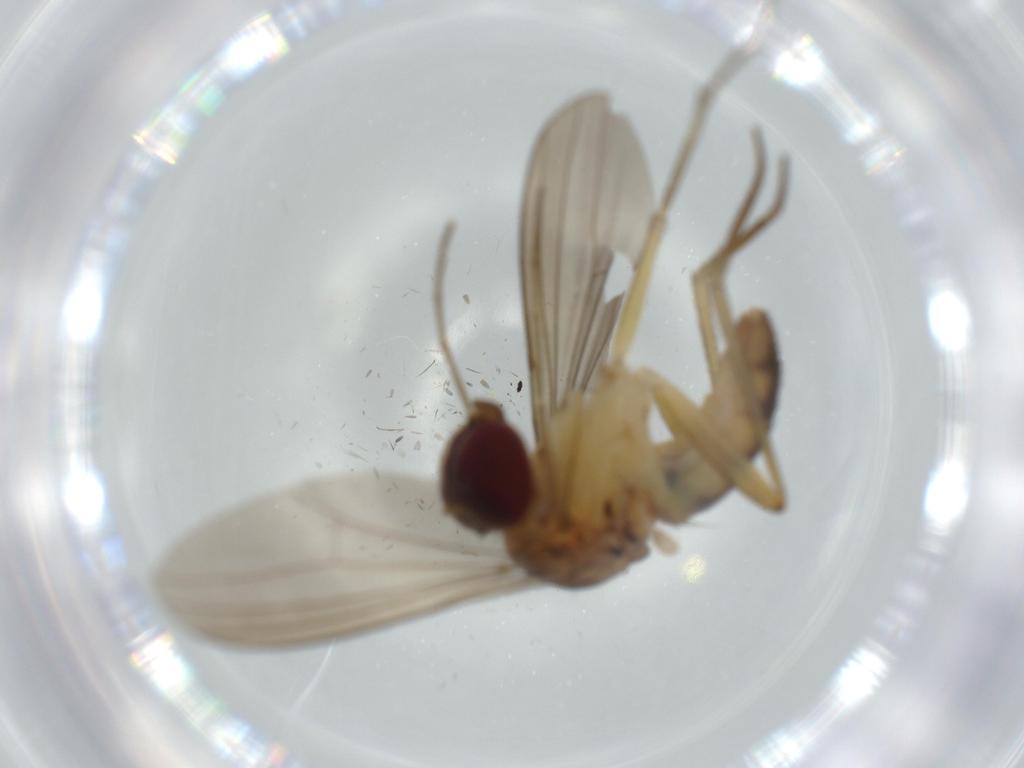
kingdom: Animalia
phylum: Arthropoda
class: Insecta
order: Diptera
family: Dolichopodidae
